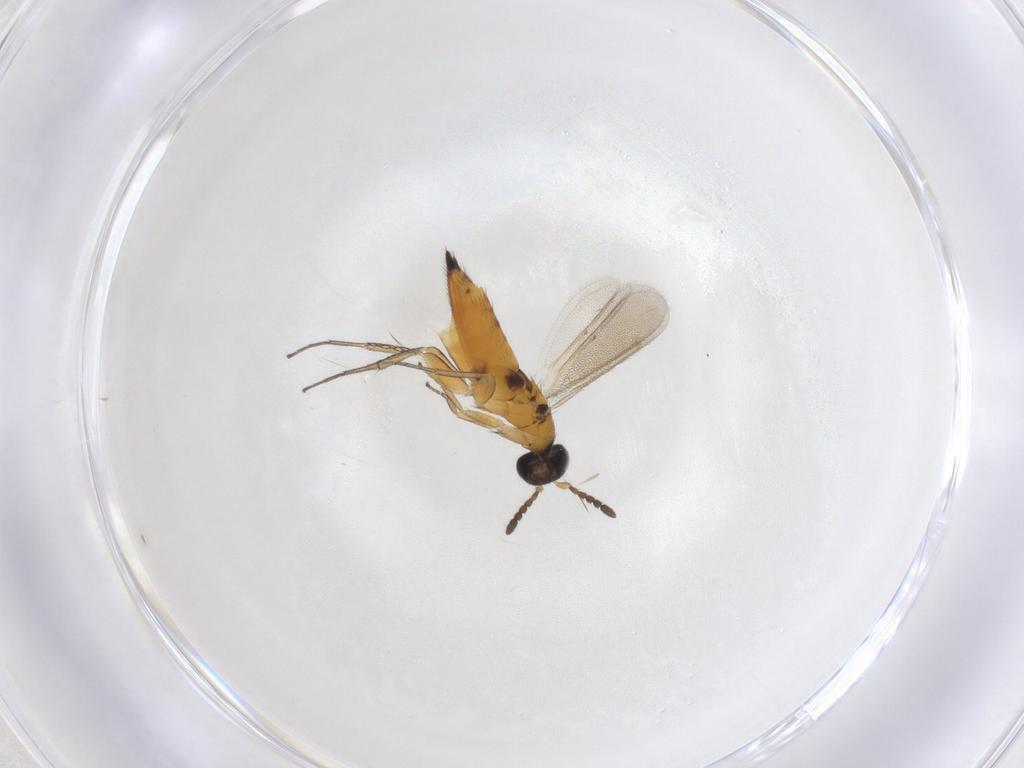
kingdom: Animalia
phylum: Arthropoda
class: Insecta
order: Hymenoptera
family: Eulophidae
